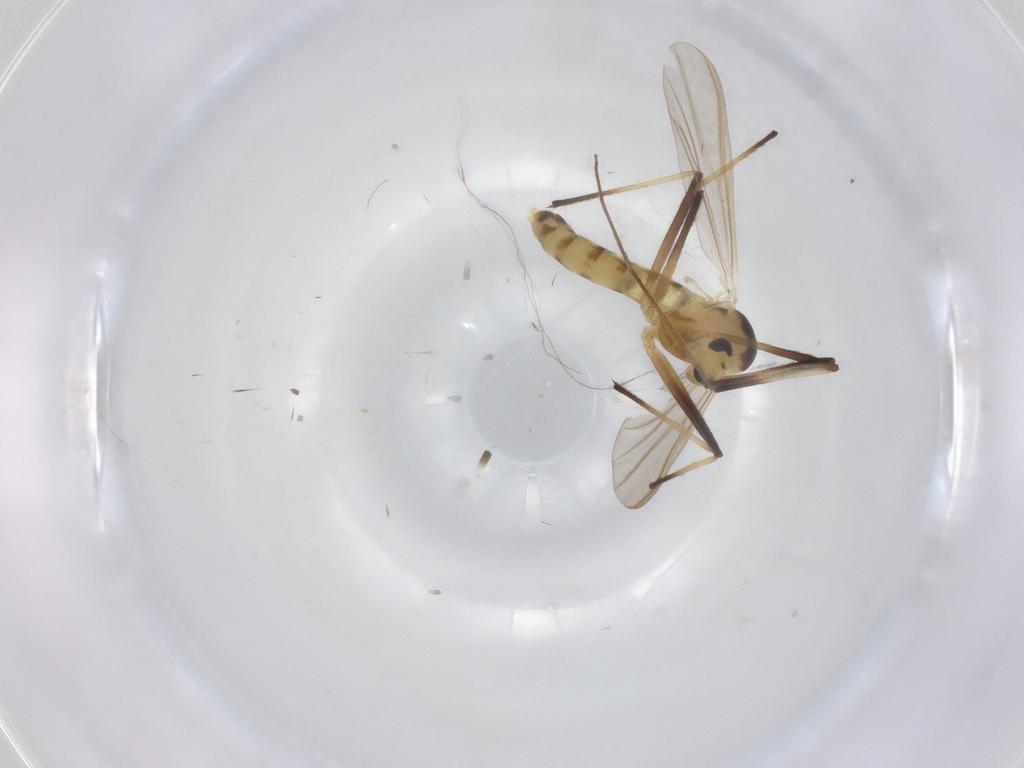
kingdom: Animalia
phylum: Arthropoda
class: Insecta
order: Diptera
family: Chironomidae
